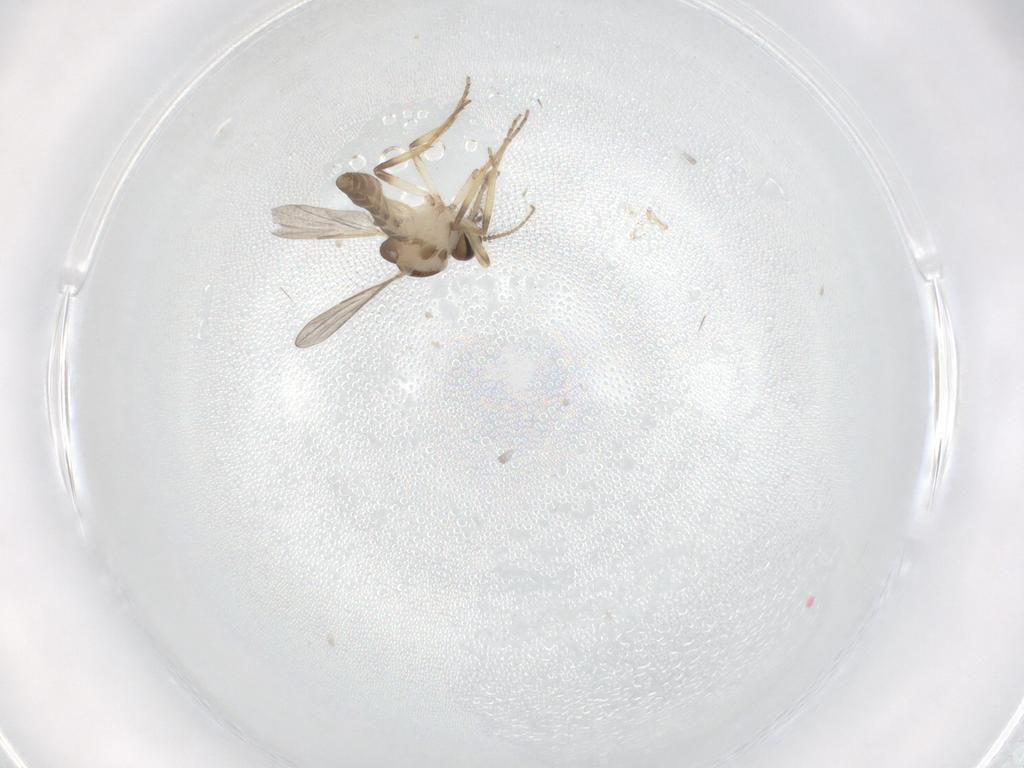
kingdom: Animalia
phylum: Arthropoda
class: Insecta
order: Diptera
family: Ceratopogonidae
